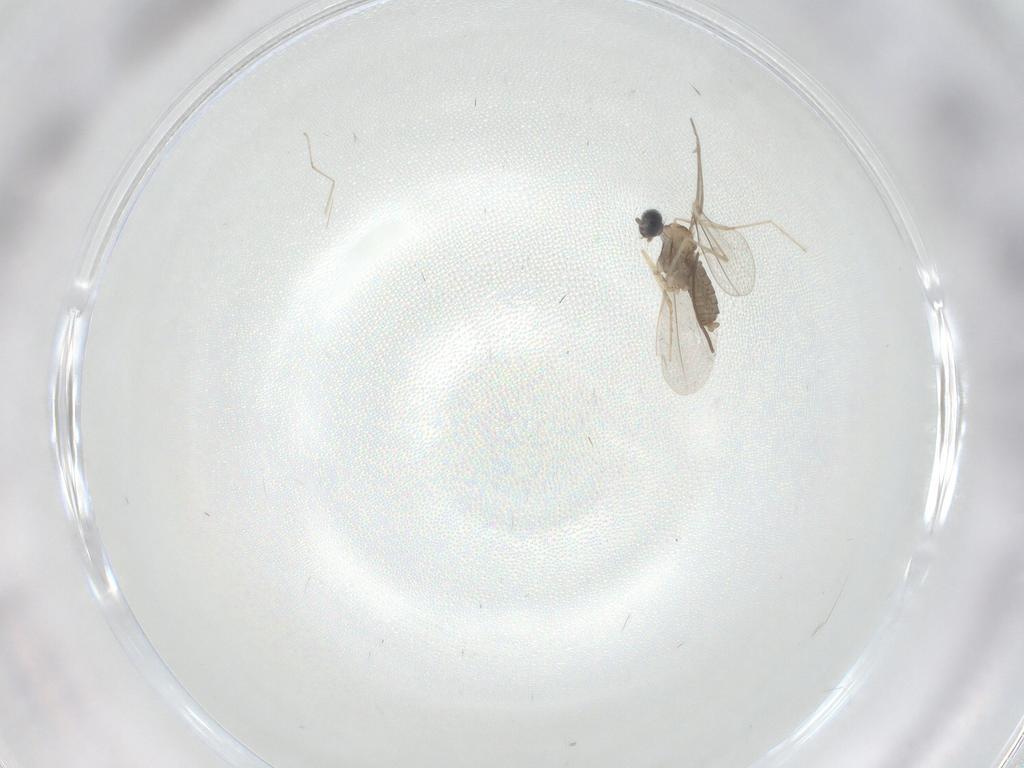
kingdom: Animalia
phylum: Arthropoda
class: Insecta
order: Diptera
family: Cecidomyiidae
